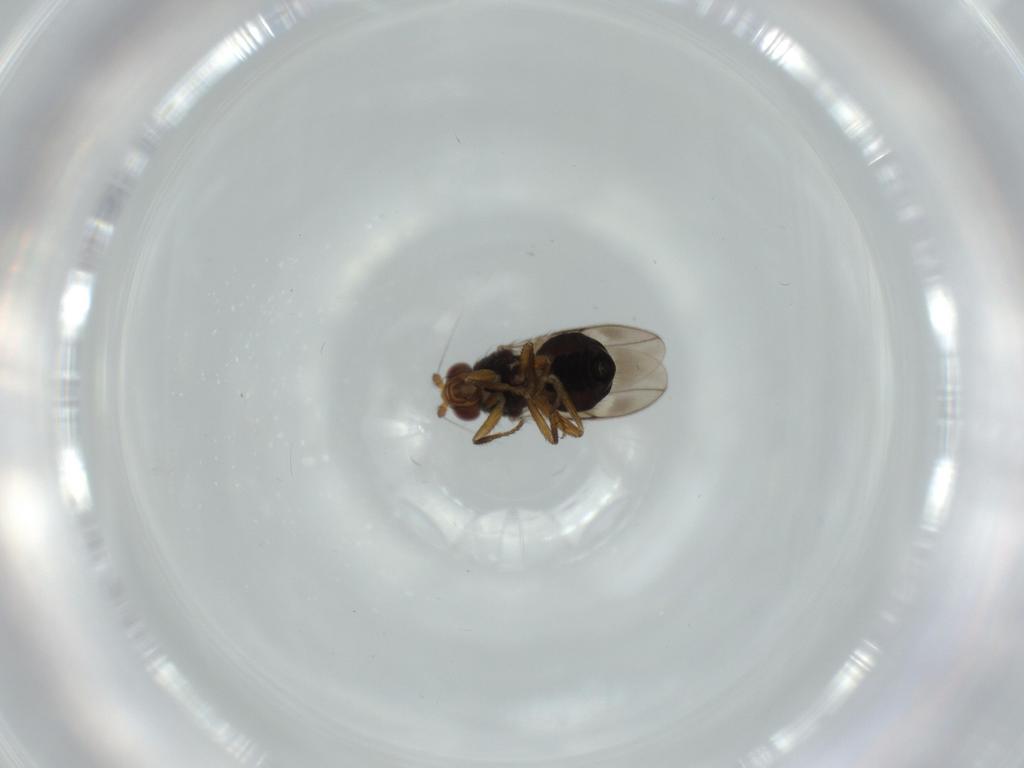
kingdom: Animalia
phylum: Arthropoda
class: Insecta
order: Diptera
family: Sphaeroceridae
